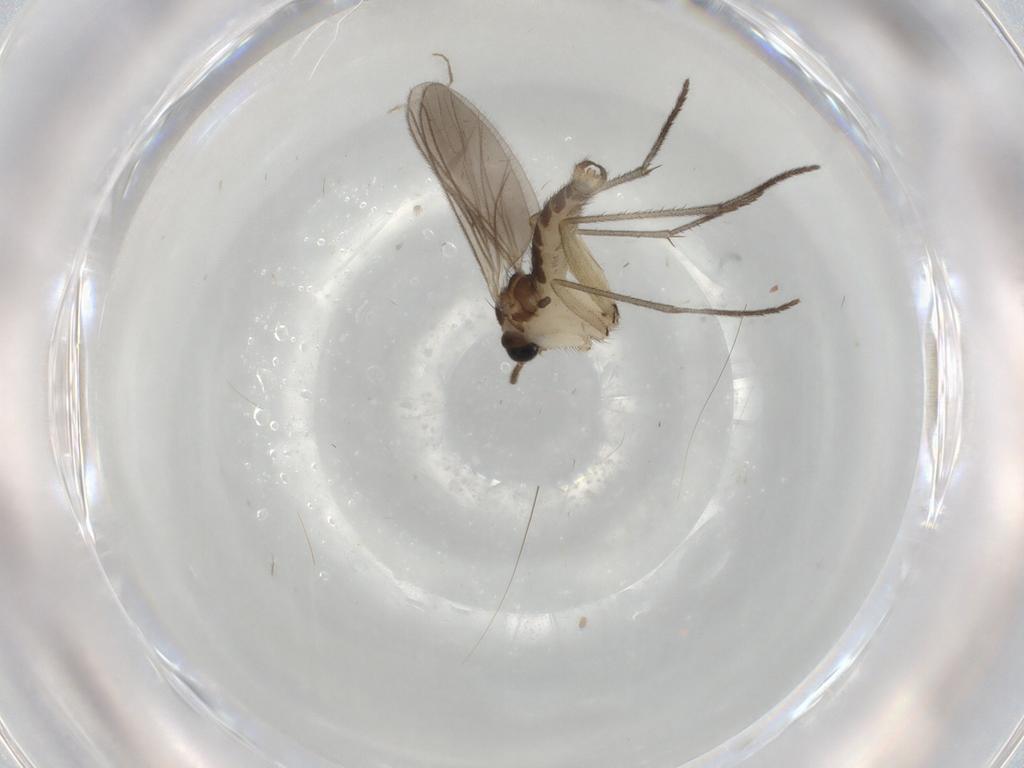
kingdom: Animalia
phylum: Arthropoda
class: Insecta
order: Diptera
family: Sciaridae
